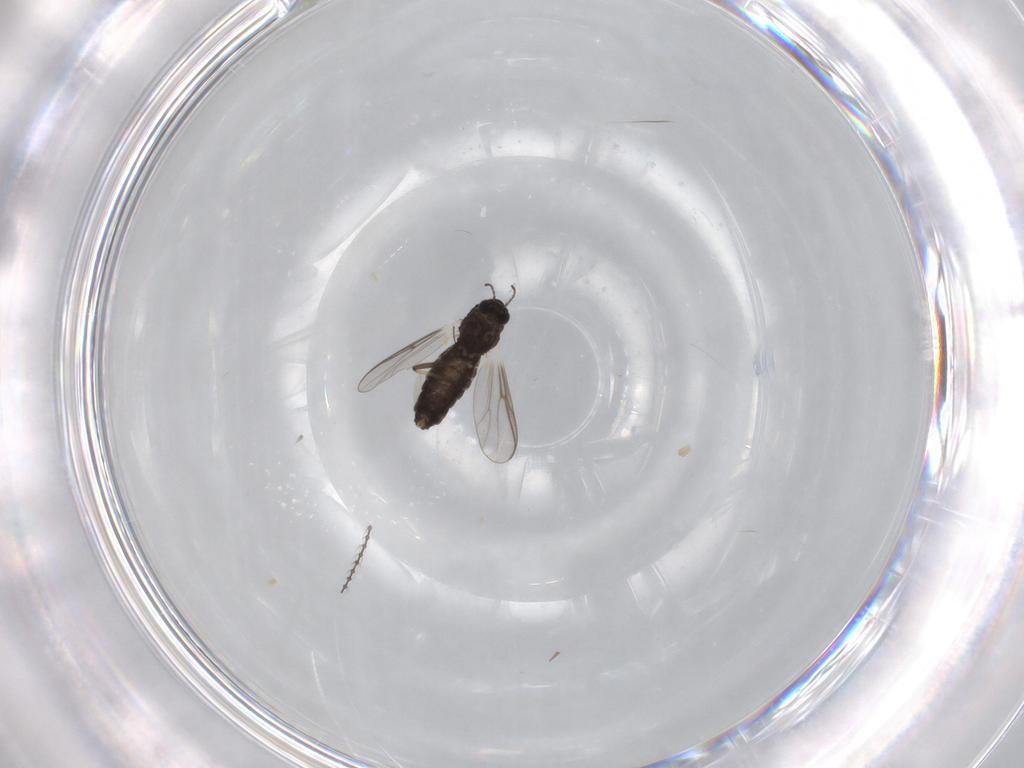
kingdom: Animalia
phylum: Arthropoda
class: Insecta
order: Diptera
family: Chironomidae
